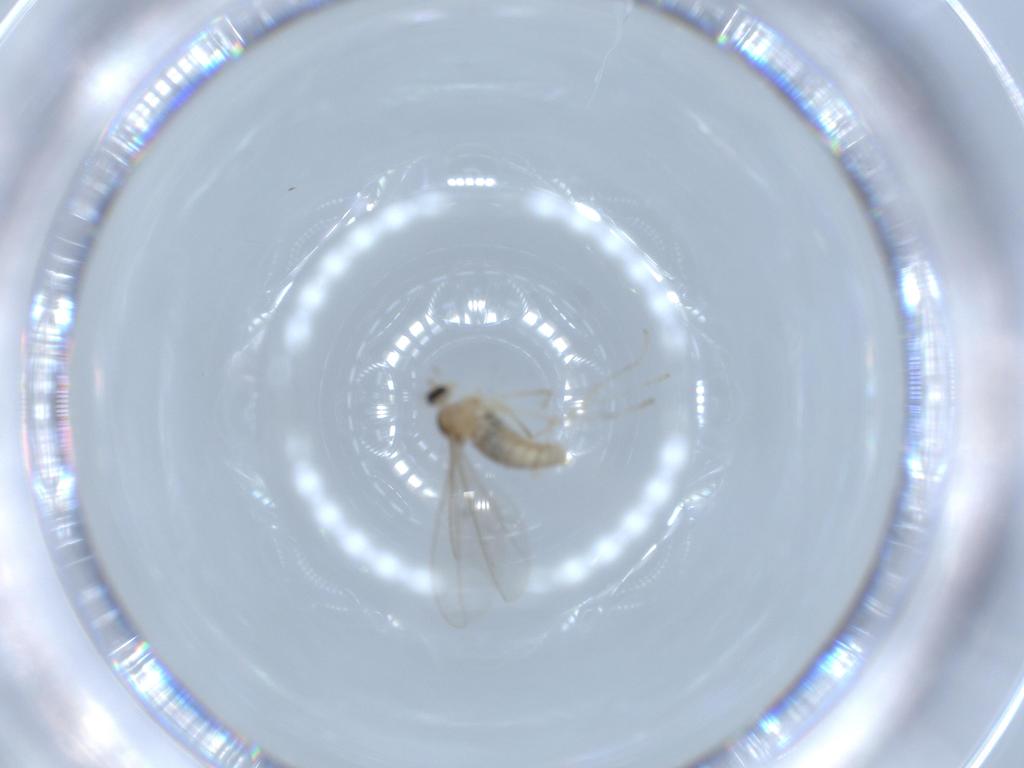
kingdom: Animalia
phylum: Arthropoda
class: Insecta
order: Diptera
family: Cecidomyiidae
